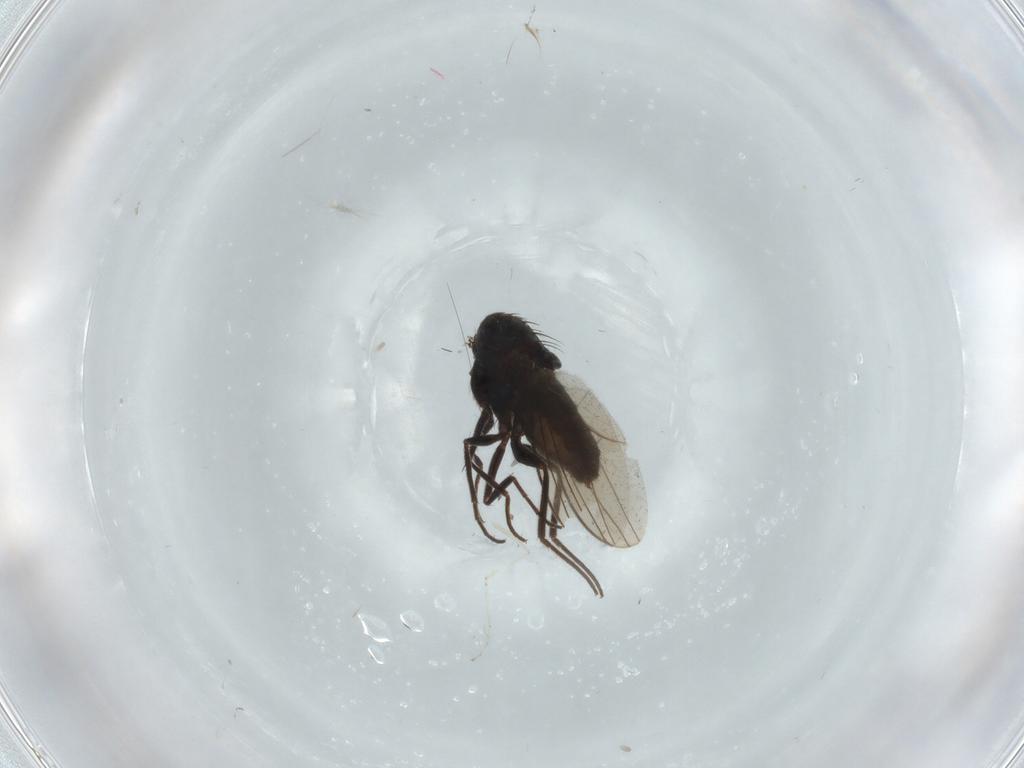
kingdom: Animalia
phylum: Arthropoda
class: Insecta
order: Diptera
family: Dolichopodidae
